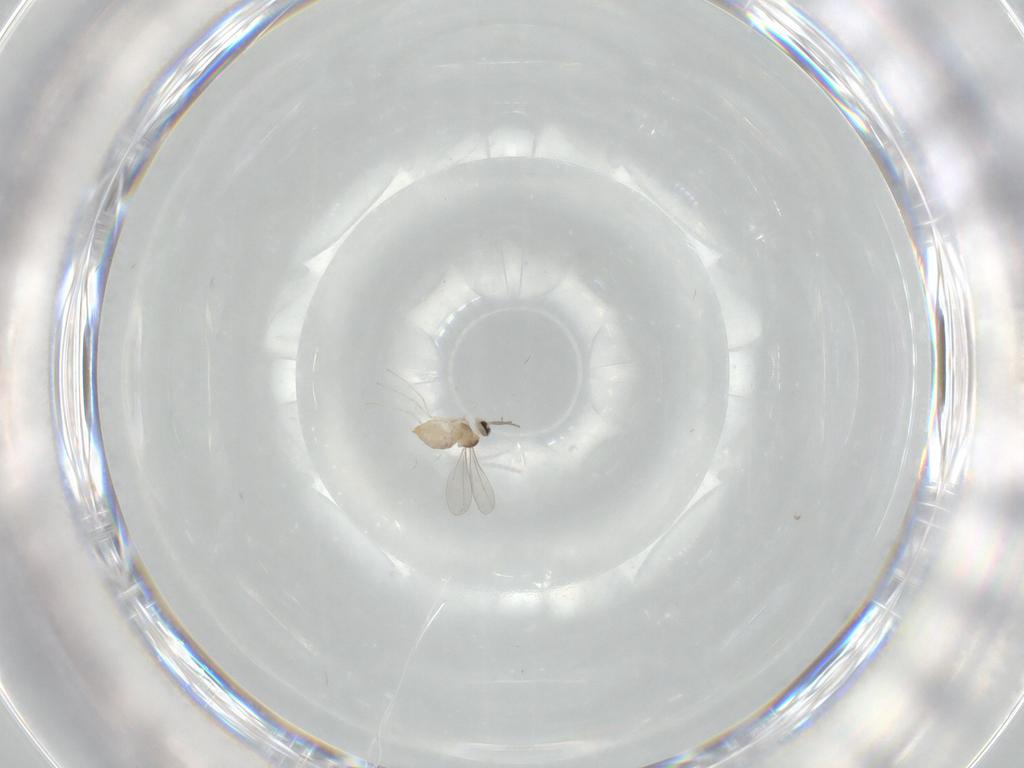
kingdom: Animalia
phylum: Arthropoda
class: Insecta
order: Diptera
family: Cecidomyiidae
